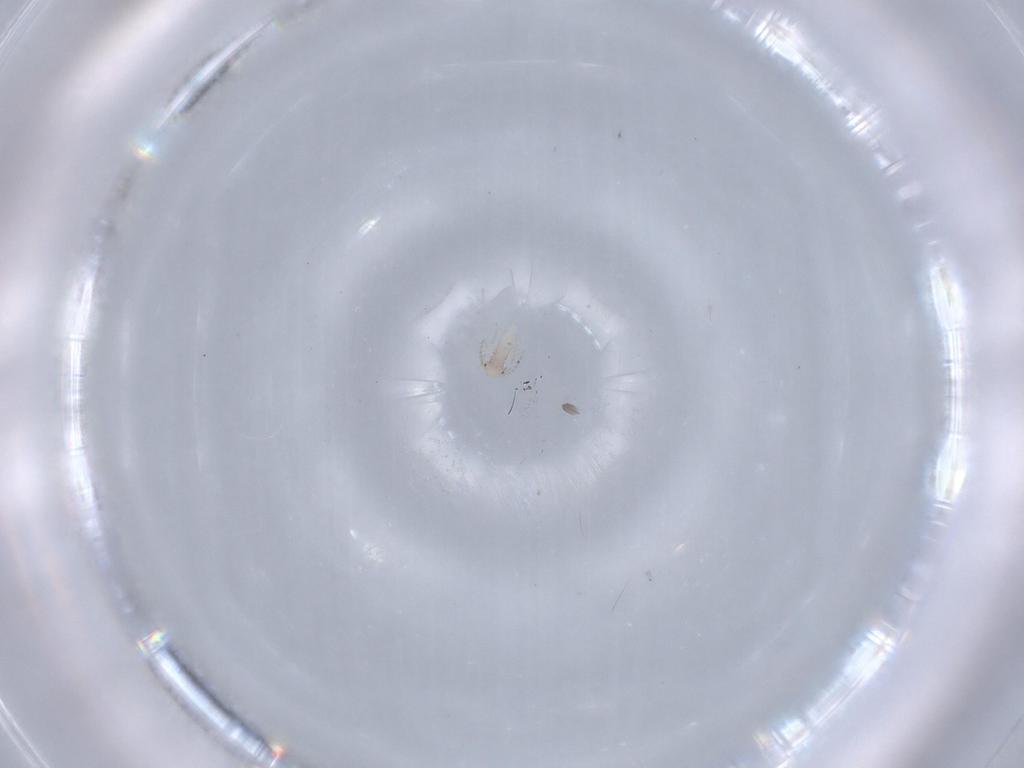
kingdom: Animalia
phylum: Arthropoda
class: Insecta
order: Psocodea
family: Ectopsocidae
